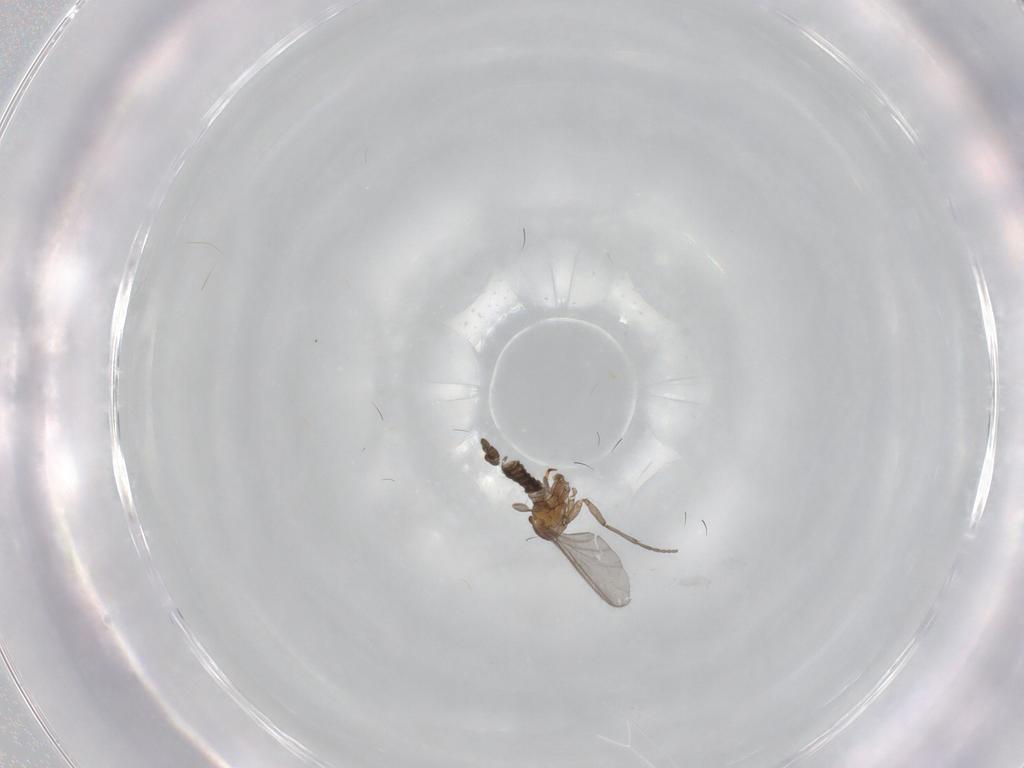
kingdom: Animalia
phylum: Arthropoda
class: Insecta
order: Diptera
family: Sciaridae
